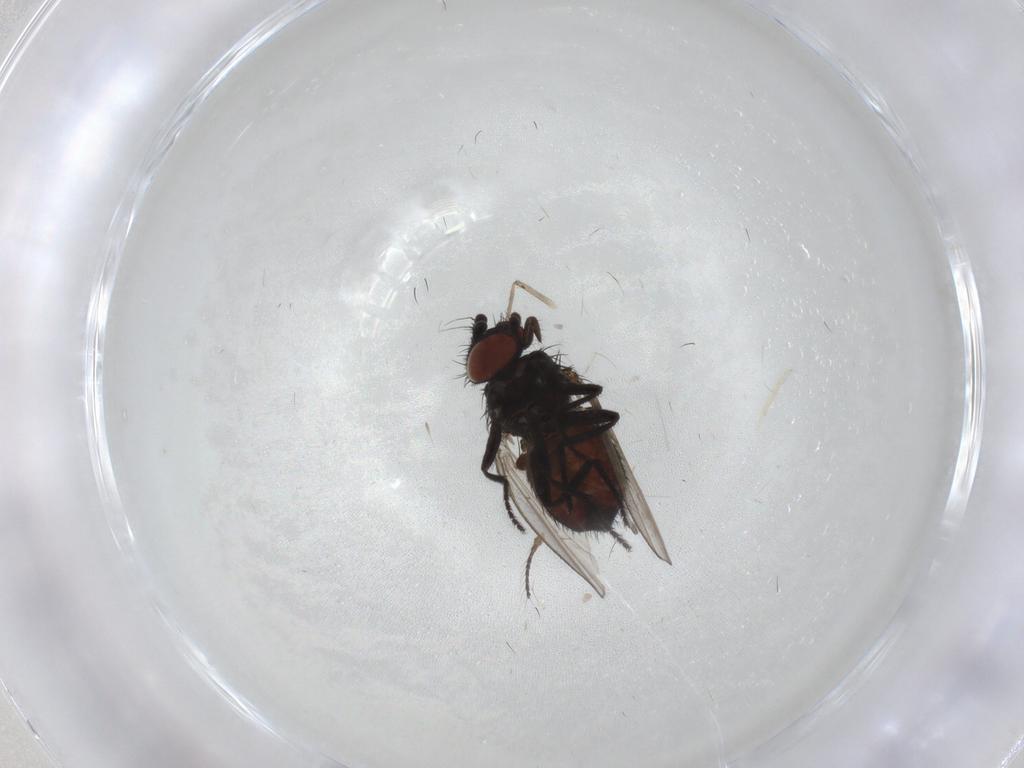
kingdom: Animalia
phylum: Arthropoda
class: Insecta
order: Diptera
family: Milichiidae
